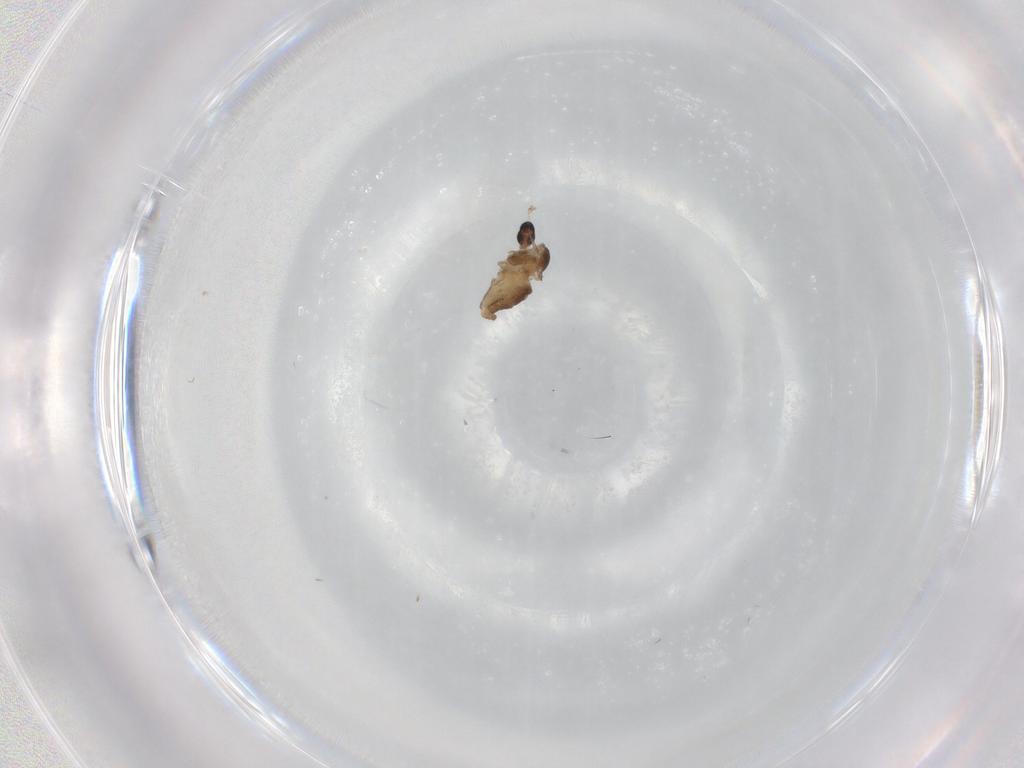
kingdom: Animalia
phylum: Arthropoda
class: Insecta
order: Diptera
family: Cecidomyiidae
